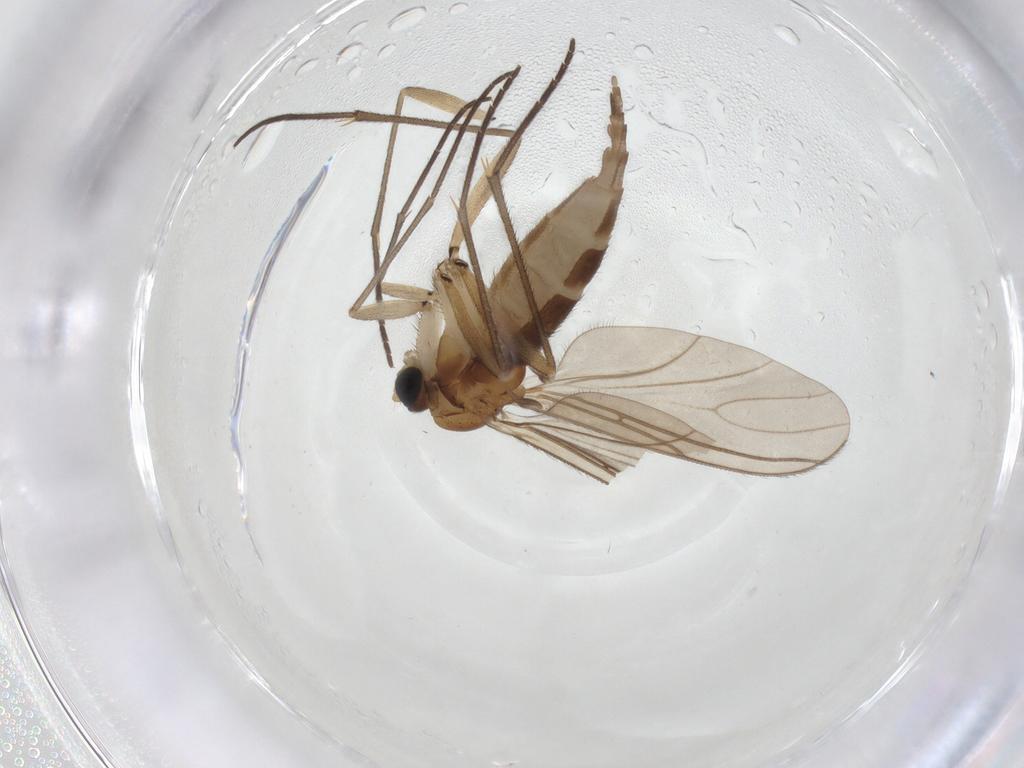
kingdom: Animalia
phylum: Arthropoda
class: Insecta
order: Diptera
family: Sciaridae
